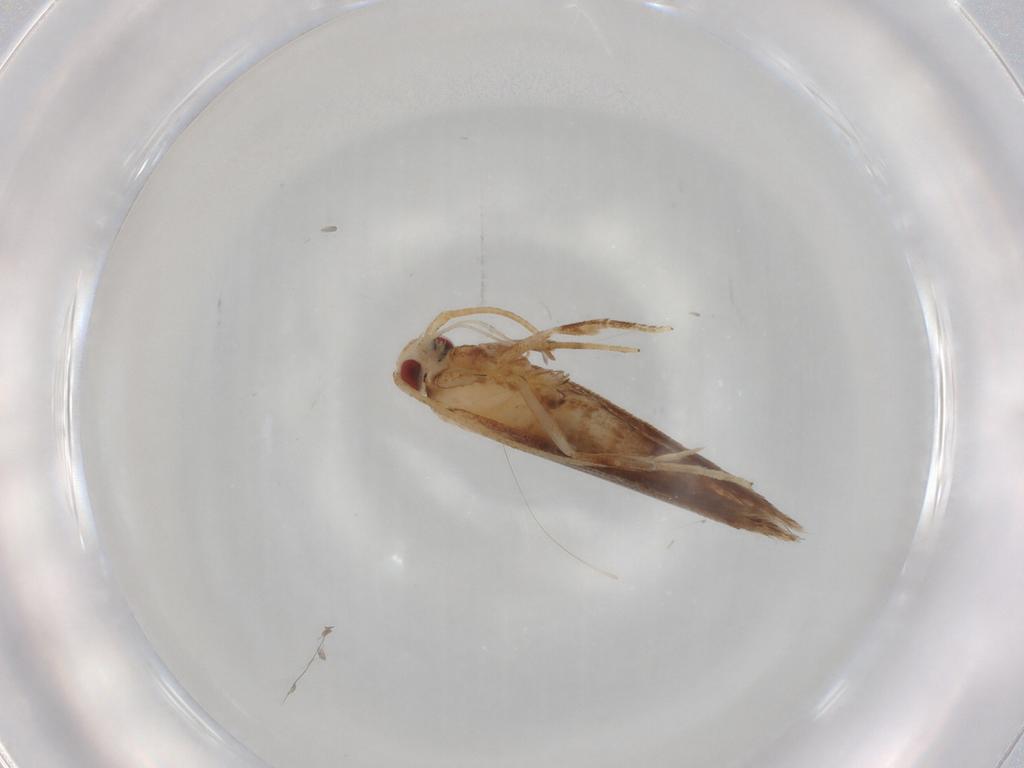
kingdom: Animalia
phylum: Arthropoda
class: Insecta
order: Lepidoptera
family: Cosmopterigidae
